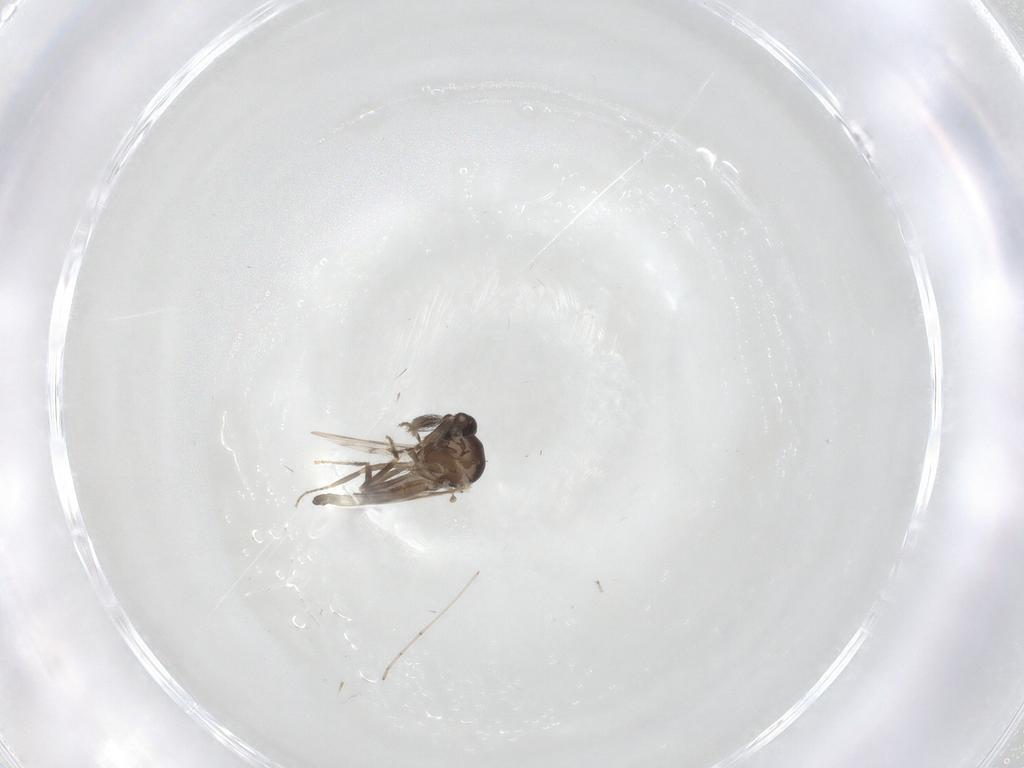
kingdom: Animalia
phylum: Arthropoda
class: Insecta
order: Diptera
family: Ceratopogonidae
